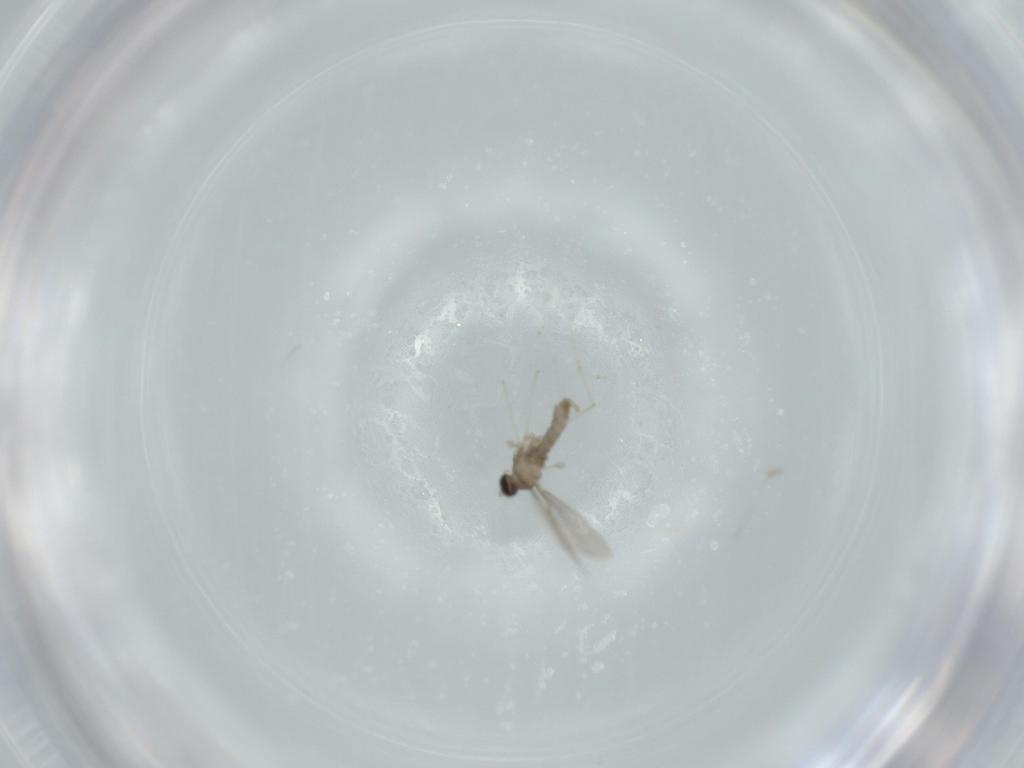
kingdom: Animalia
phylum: Arthropoda
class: Insecta
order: Diptera
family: Cecidomyiidae
